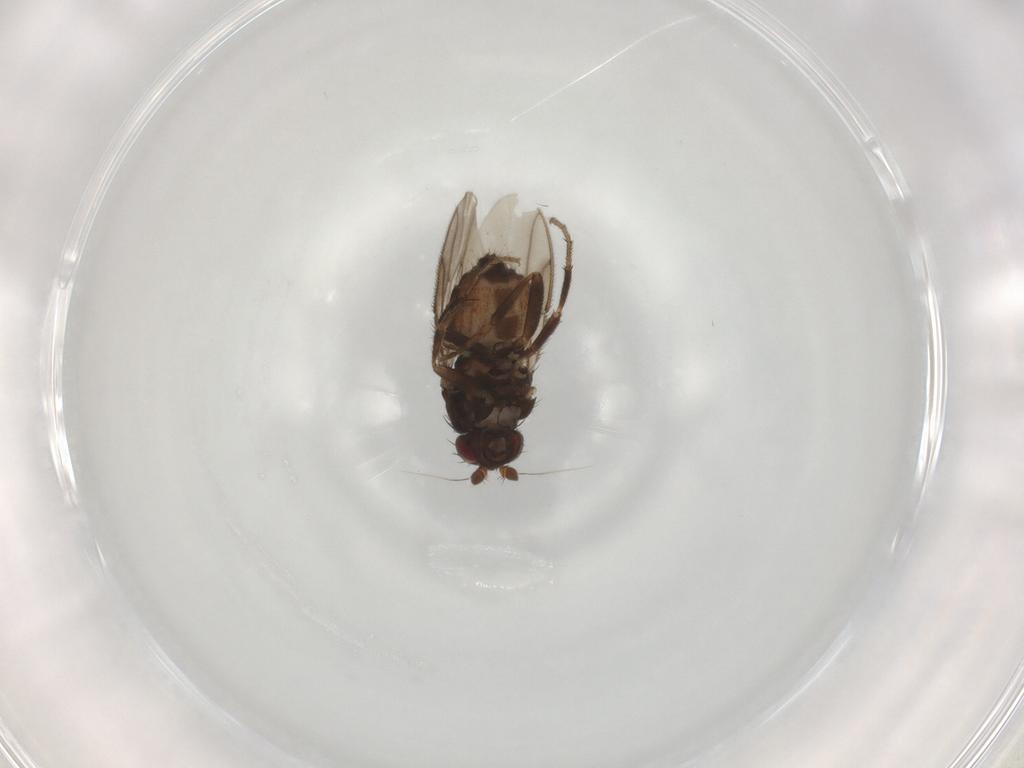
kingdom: Animalia
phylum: Arthropoda
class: Insecta
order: Diptera
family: Sphaeroceridae
